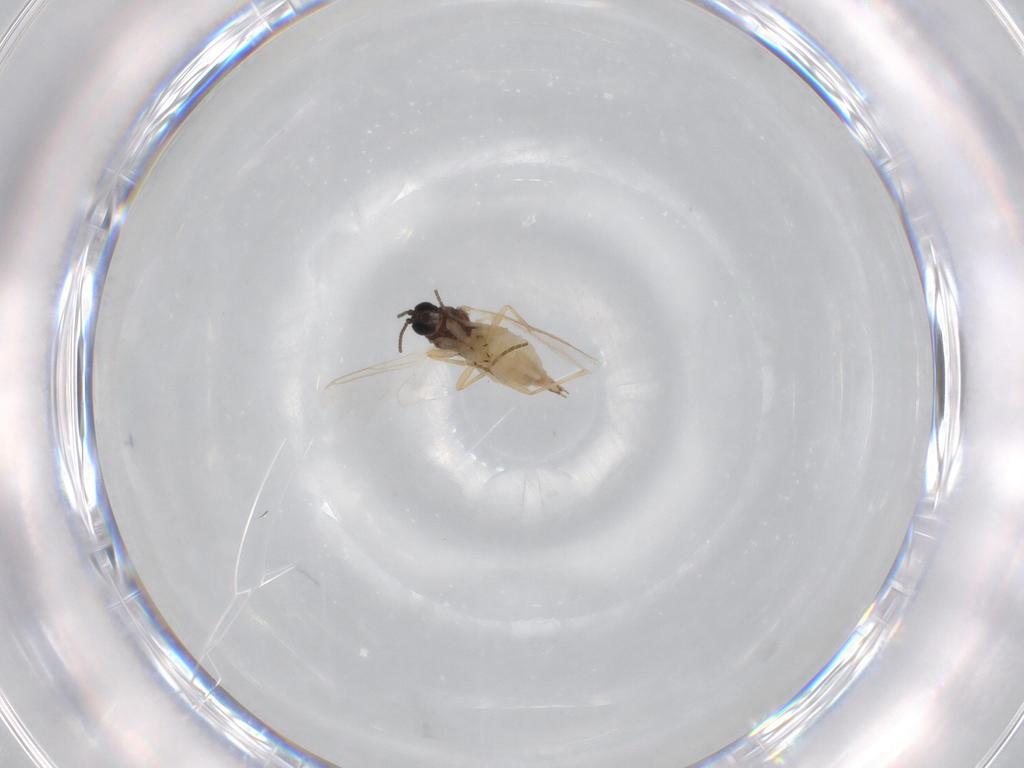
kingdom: Animalia
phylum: Arthropoda
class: Insecta
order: Diptera
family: Sciaridae
